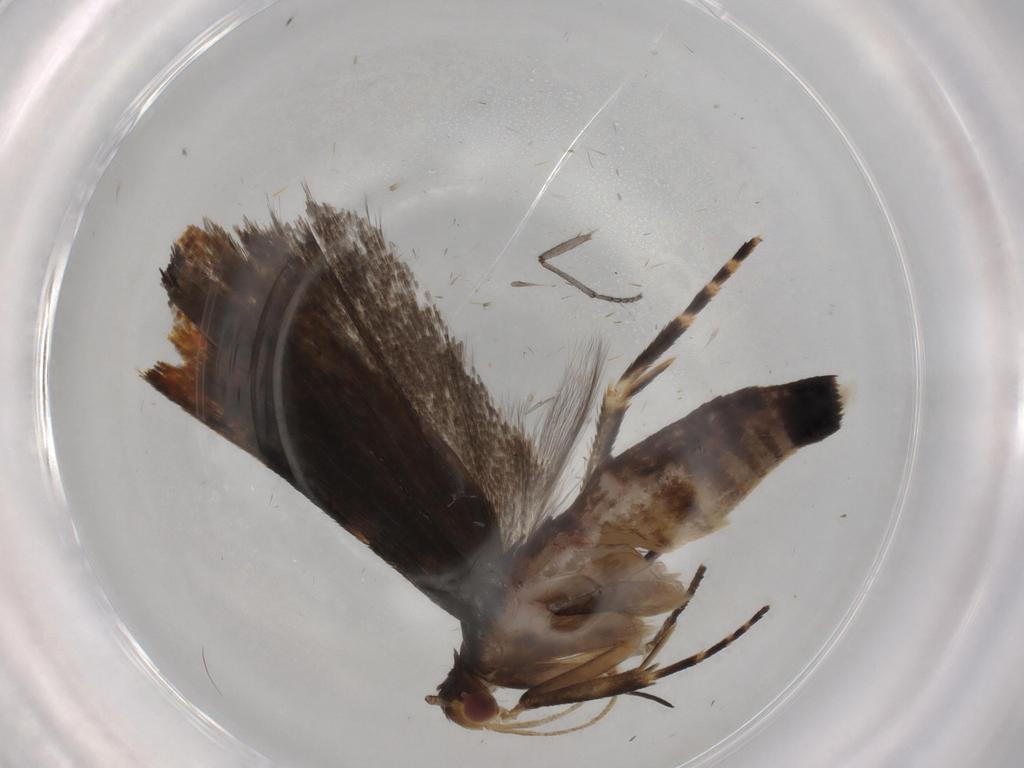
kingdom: Animalia
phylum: Arthropoda
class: Insecta
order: Lepidoptera
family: Gelechiidae
